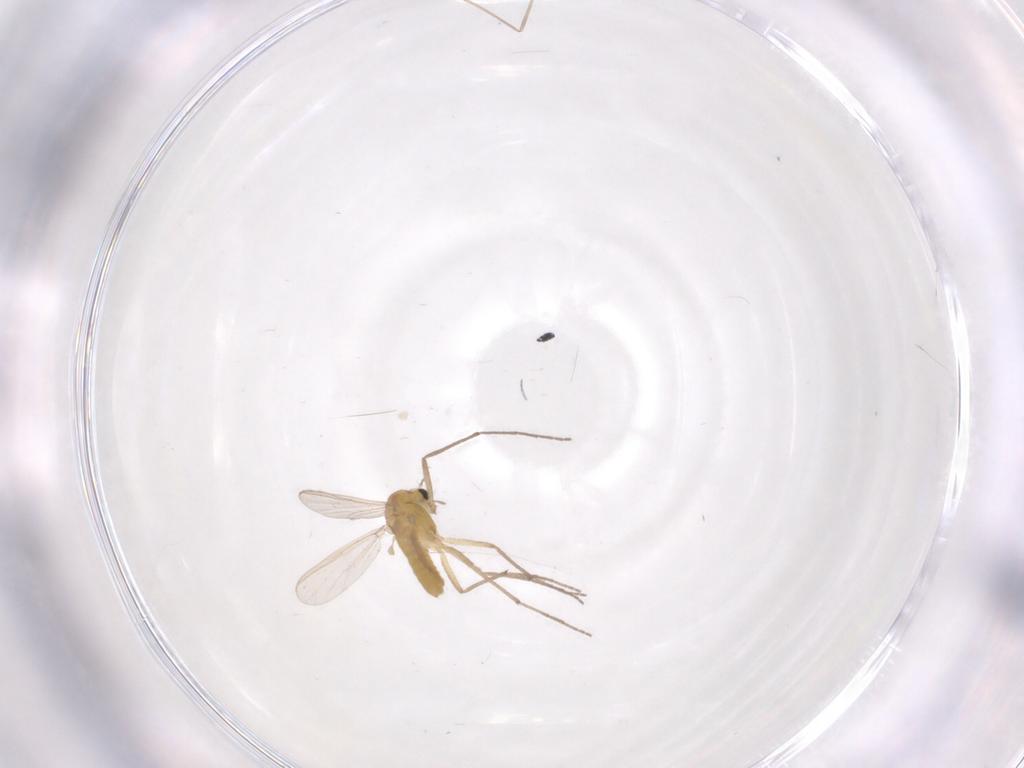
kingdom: Animalia
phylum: Arthropoda
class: Insecta
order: Diptera
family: Chironomidae
